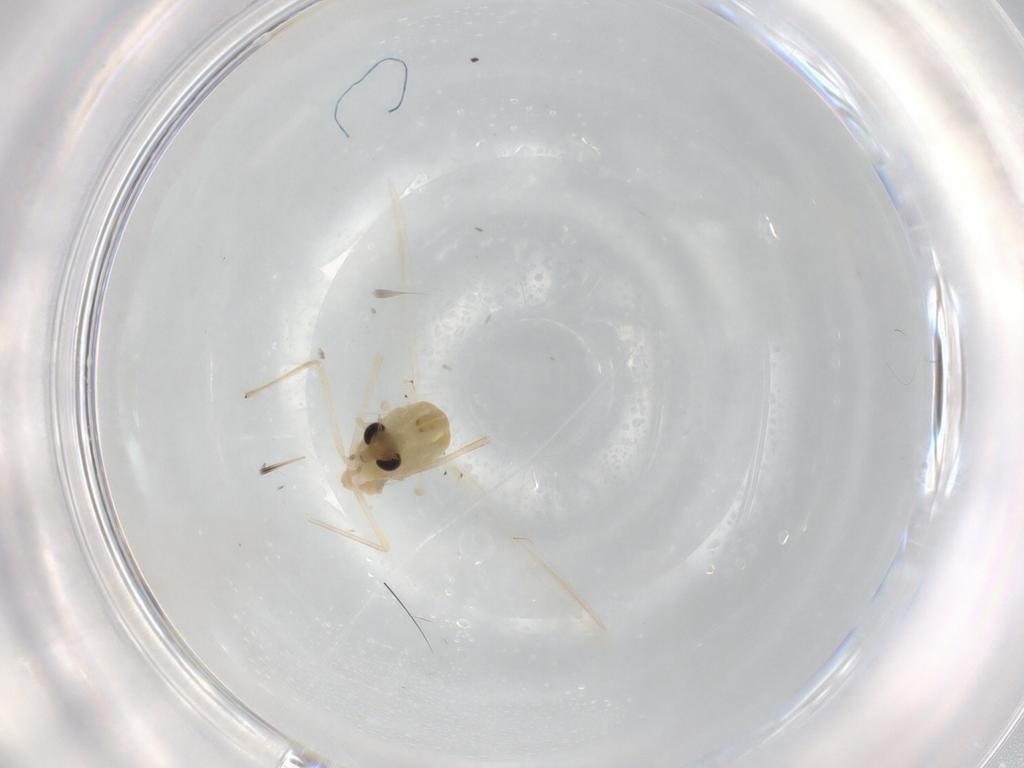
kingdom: Animalia
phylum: Arthropoda
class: Insecta
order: Diptera
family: Chironomidae
